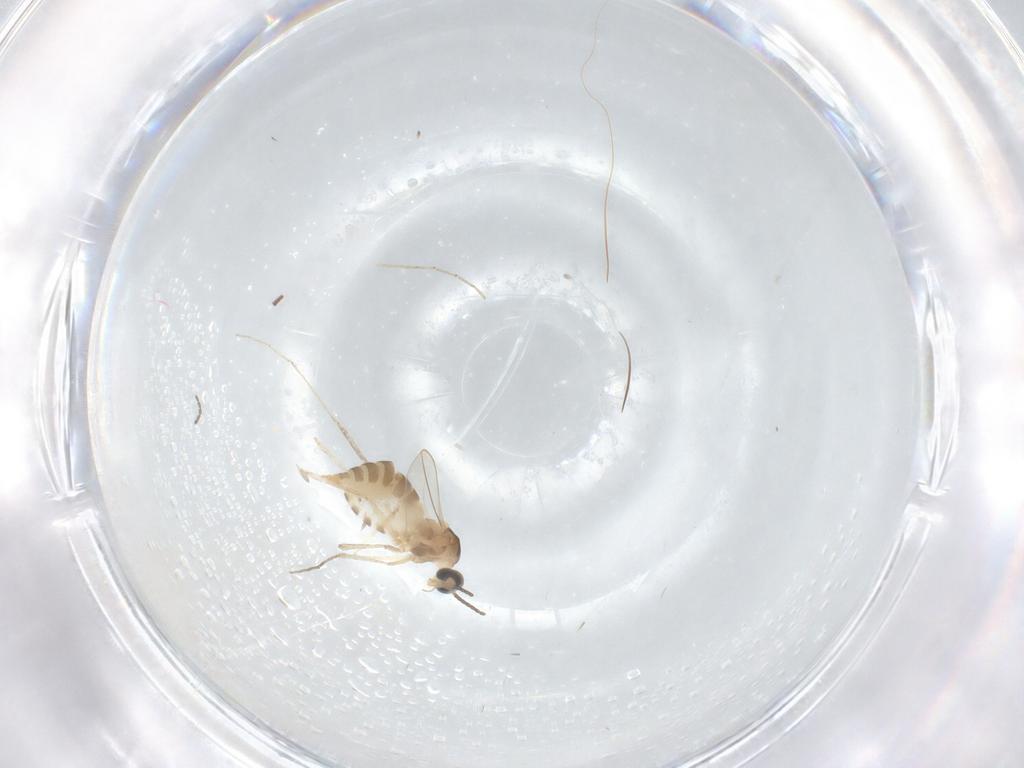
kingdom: Animalia
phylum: Arthropoda
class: Insecta
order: Diptera
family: Cecidomyiidae
